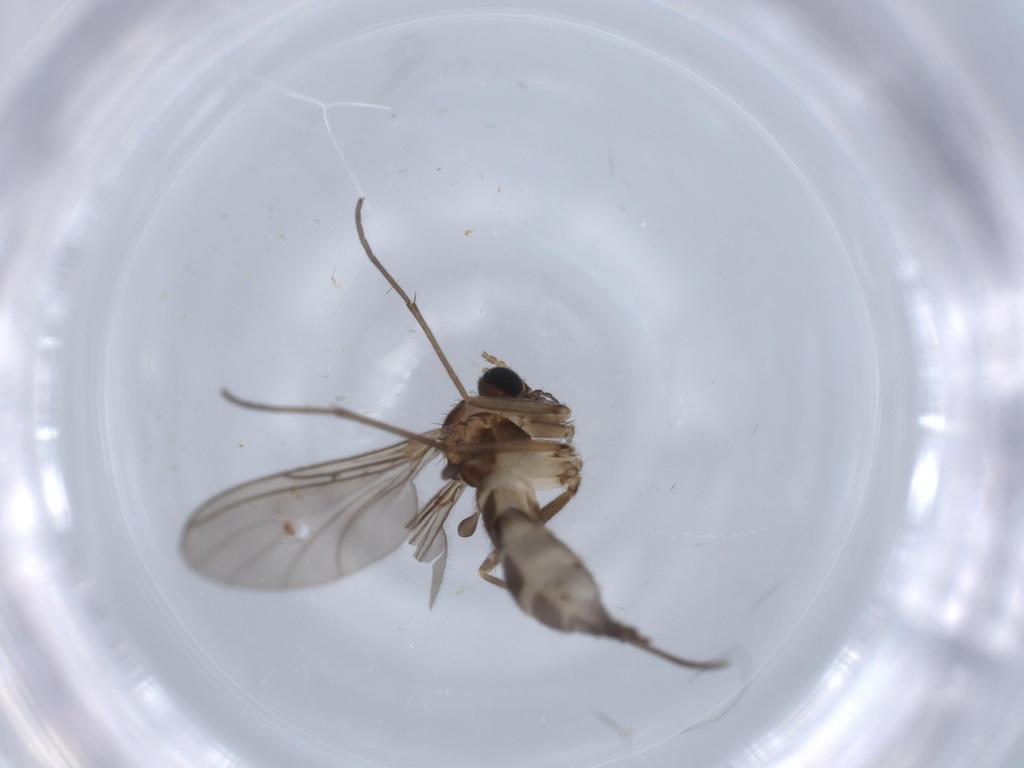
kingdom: Animalia
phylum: Arthropoda
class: Insecta
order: Diptera
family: Sciaridae
